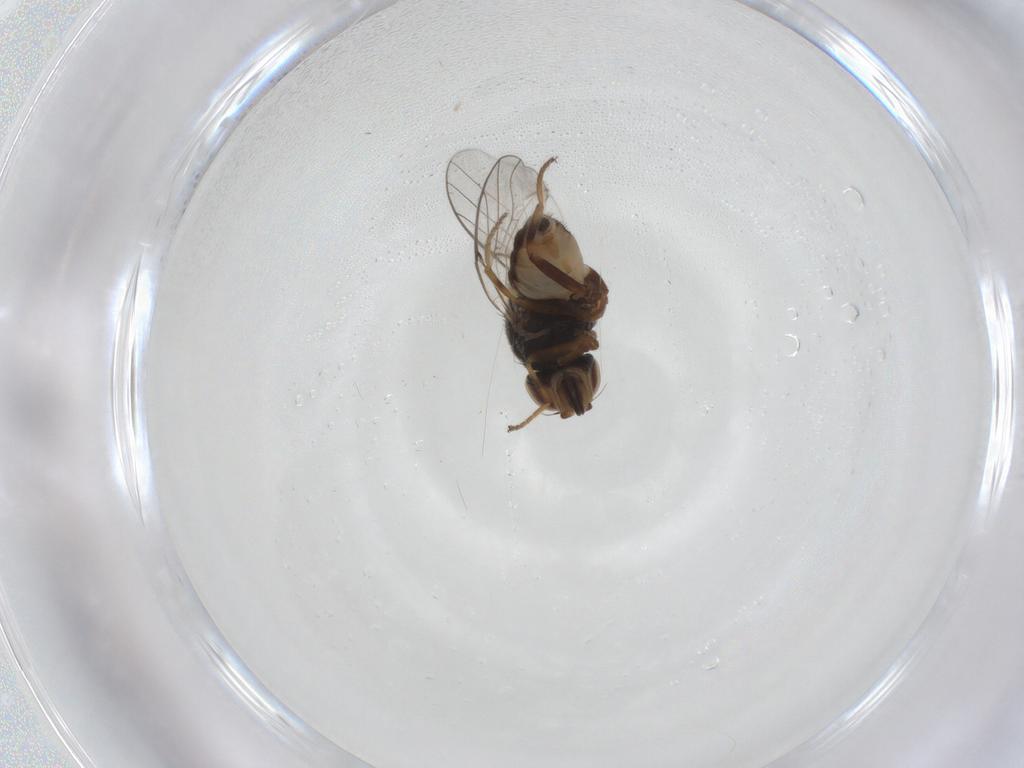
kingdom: Animalia
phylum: Arthropoda
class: Insecta
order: Diptera
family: Chloropidae
